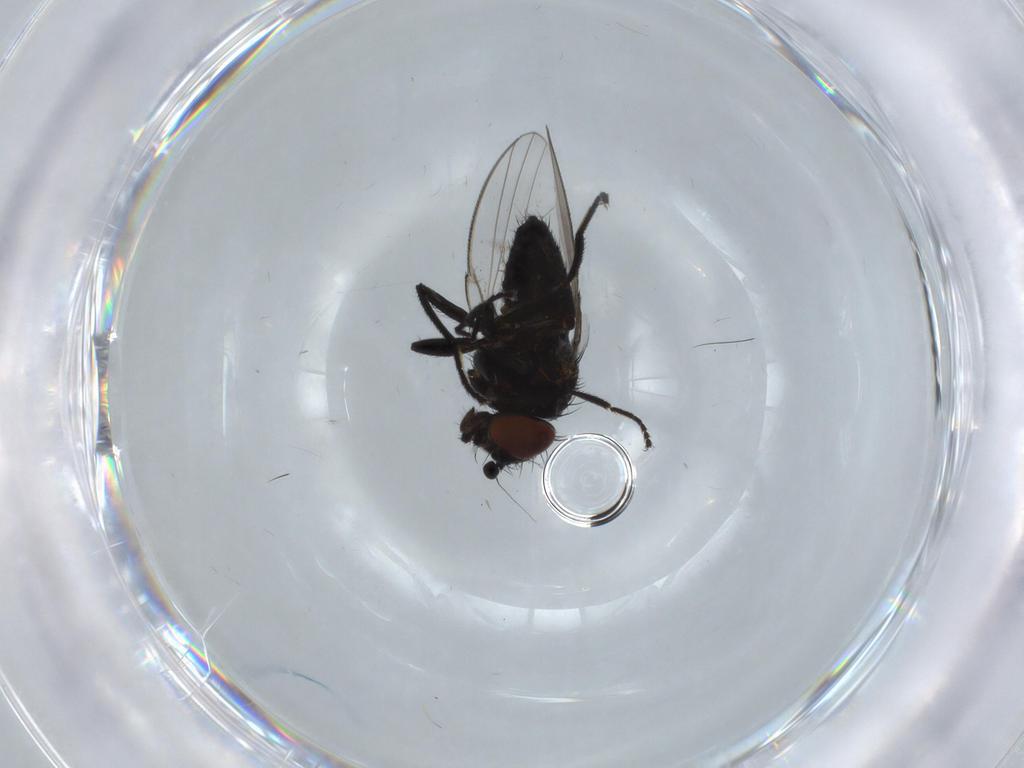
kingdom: Animalia
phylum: Arthropoda
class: Insecta
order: Diptera
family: Milichiidae
